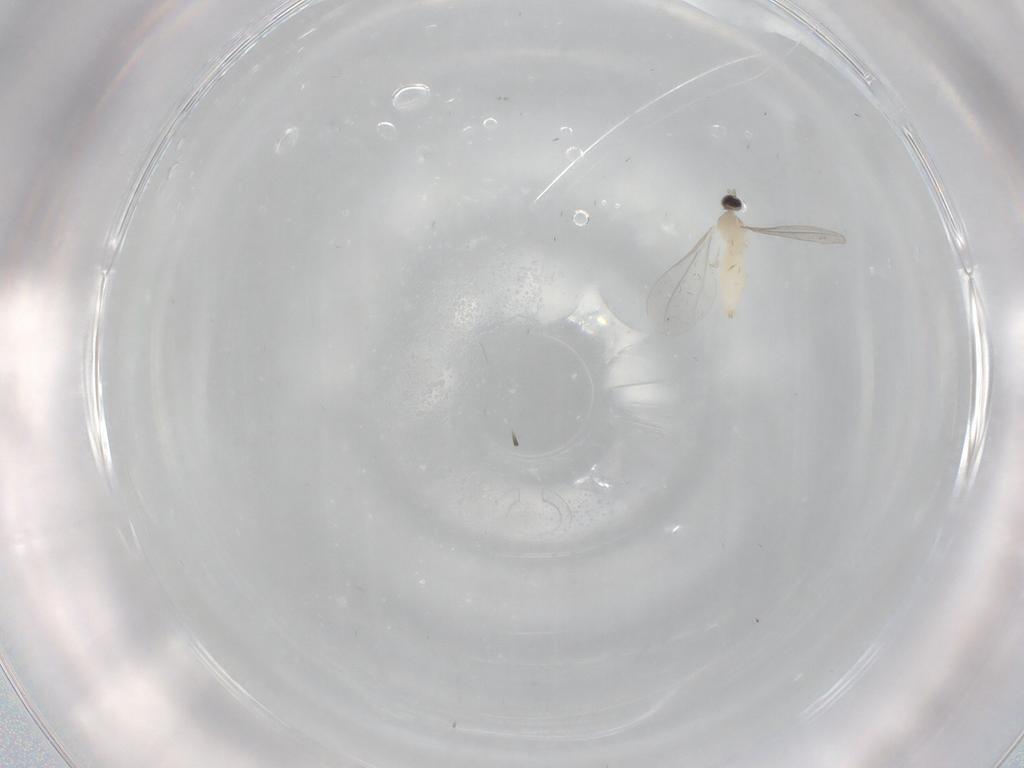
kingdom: Animalia
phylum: Arthropoda
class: Insecta
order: Diptera
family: Chironomidae
